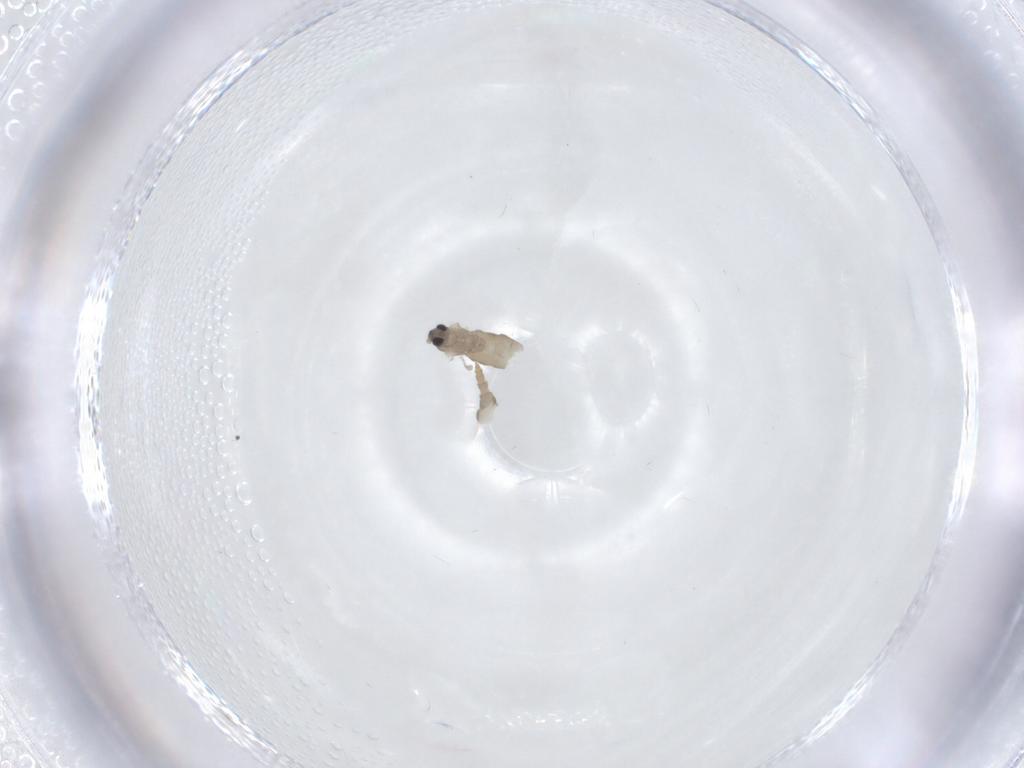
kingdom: Animalia
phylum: Arthropoda
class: Insecta
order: Diptera
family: Cecidomyiidae
